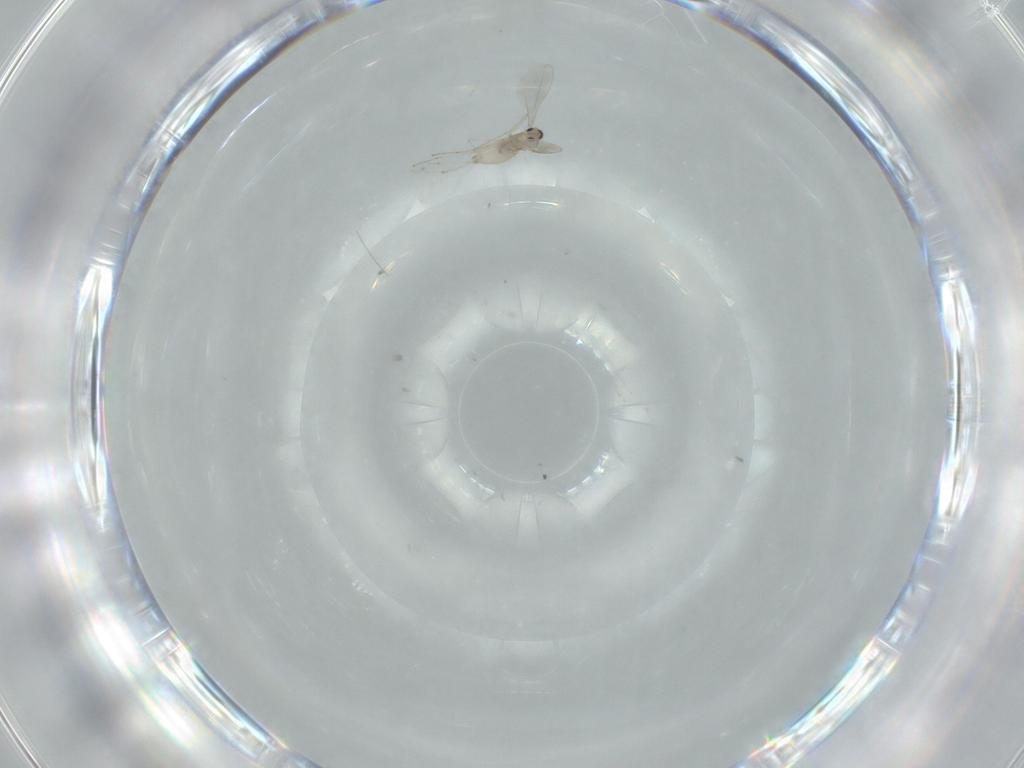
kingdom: Animalia
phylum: Arthropoda
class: Insecta
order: Diptera
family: Cecidomyiidae
